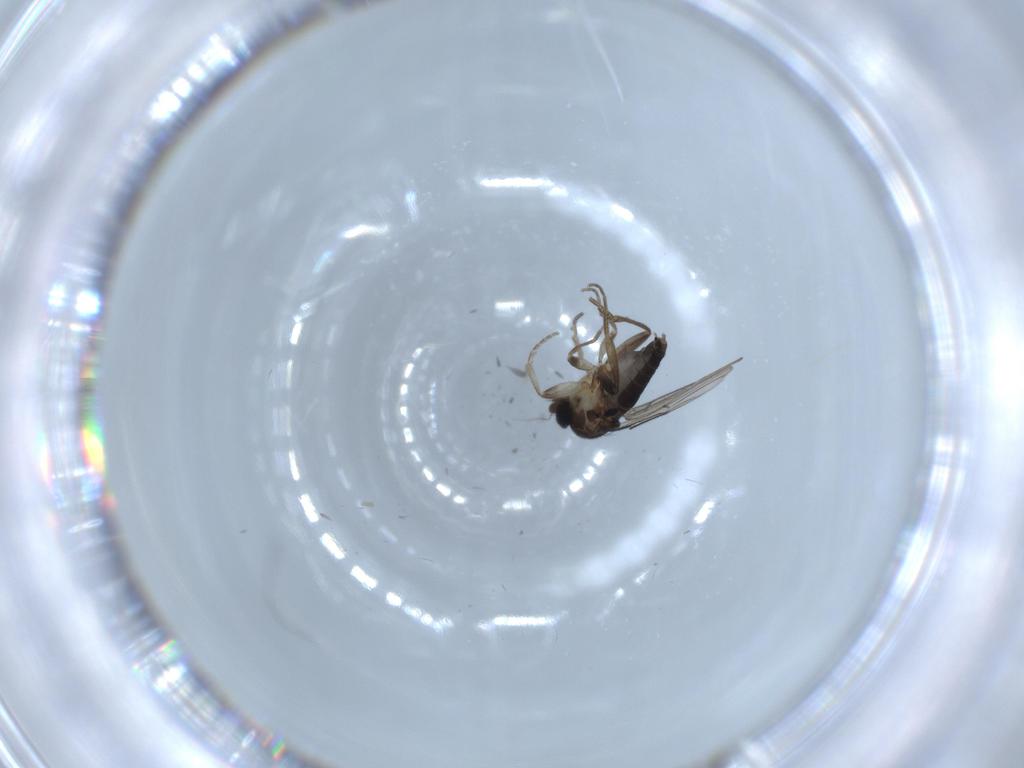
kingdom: Animalia
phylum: Arthropoda
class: Insecta
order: Diptera
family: Phoridae
